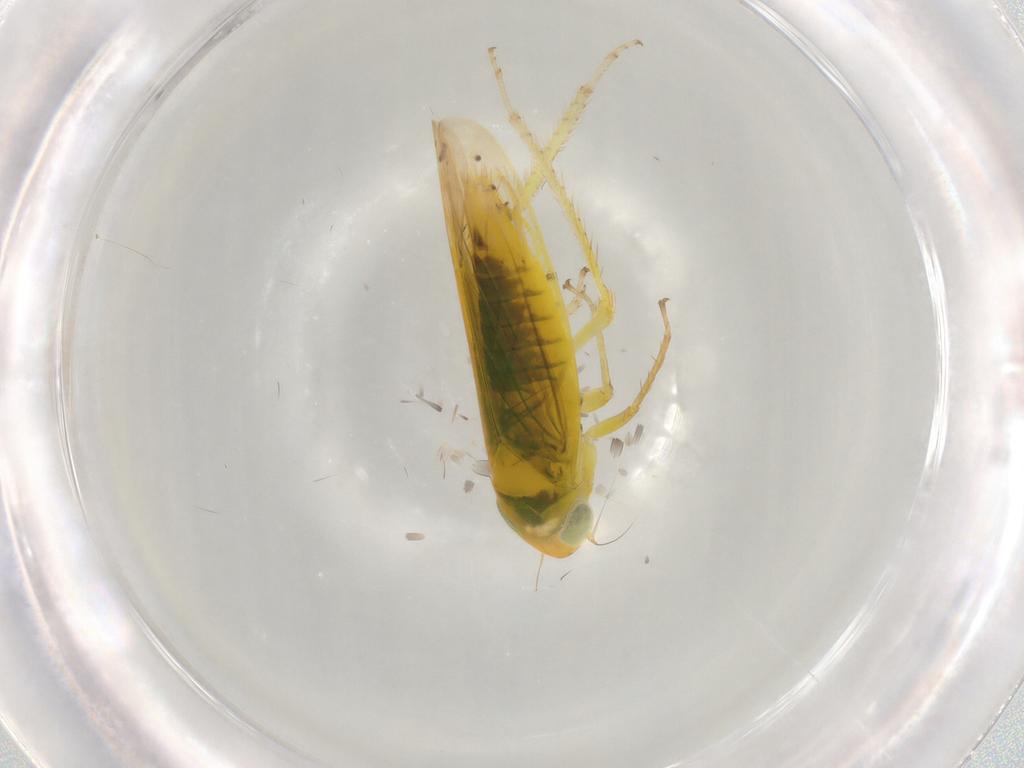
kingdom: Animalia
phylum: Arthropoda
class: Insecta
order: Hemiptera
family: Cicadellidae
